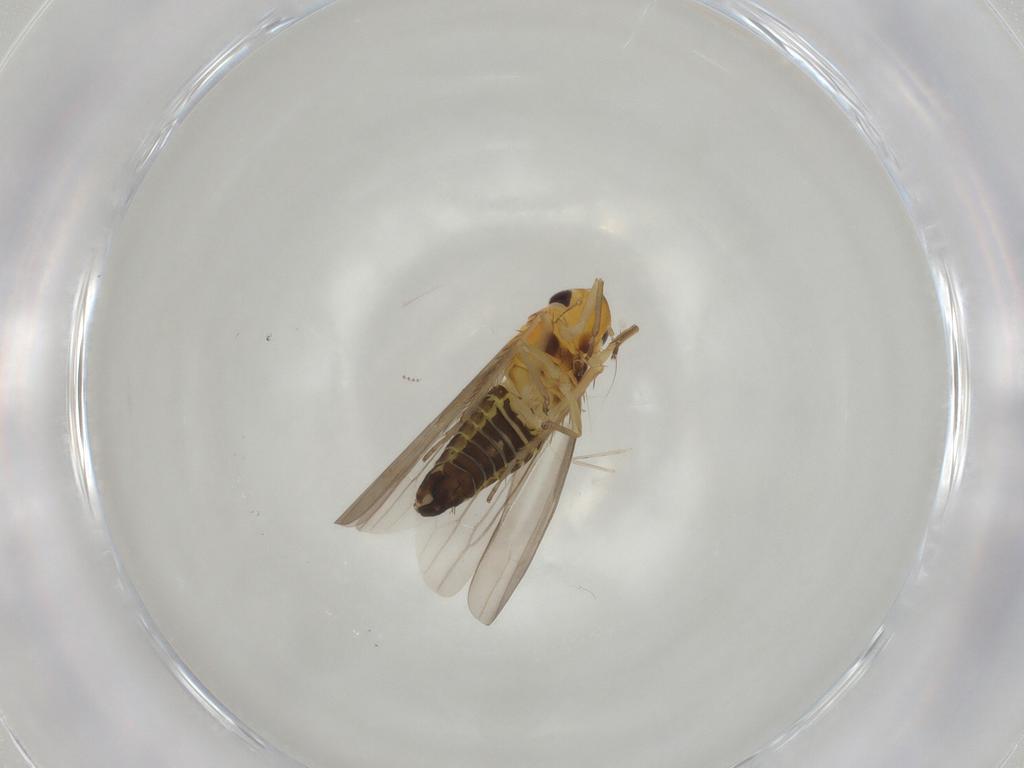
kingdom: Animalia
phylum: Arthropoda
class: Insecta
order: Hemiptera
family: Cicadellidae
